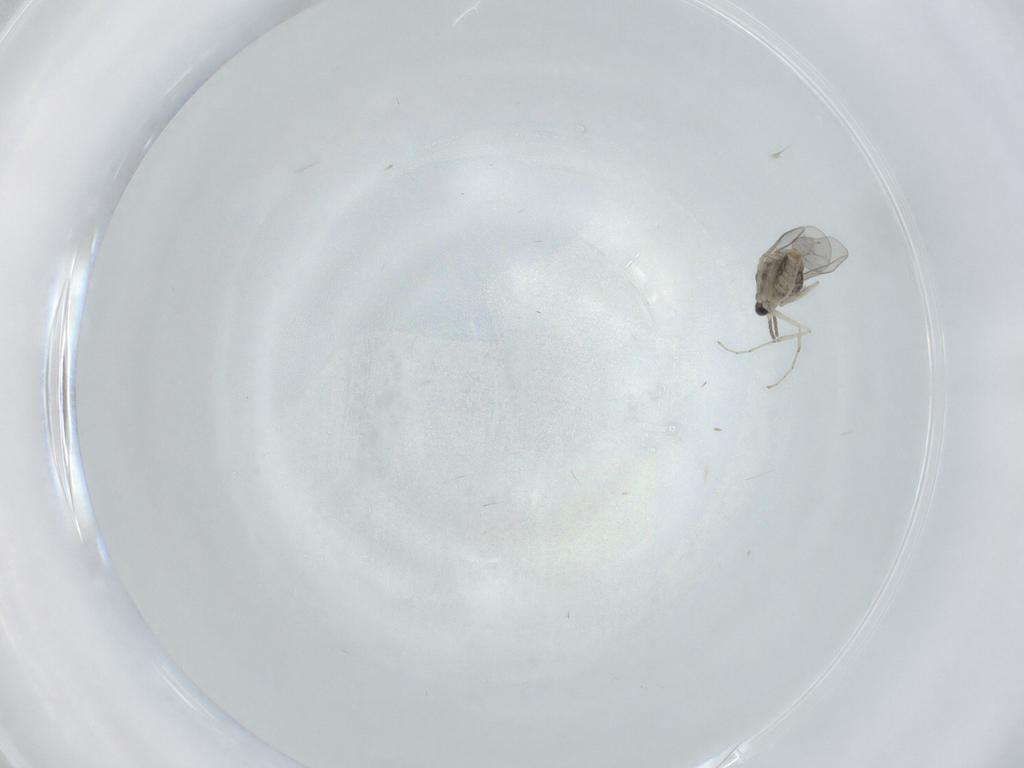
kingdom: Animalia
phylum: Arthropoda
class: Insecta
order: Diptera
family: Cecidomyiidae
